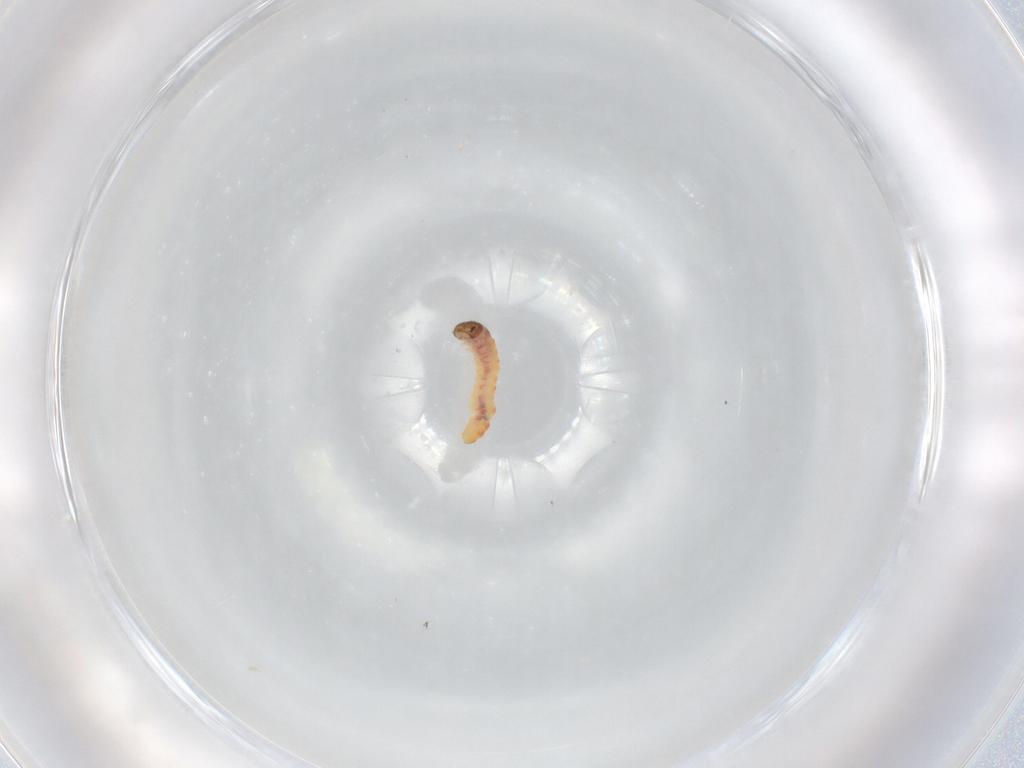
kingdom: Animalia
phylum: Arthropoda
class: Insecta
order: Lepidoptera
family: Oecophoridae
